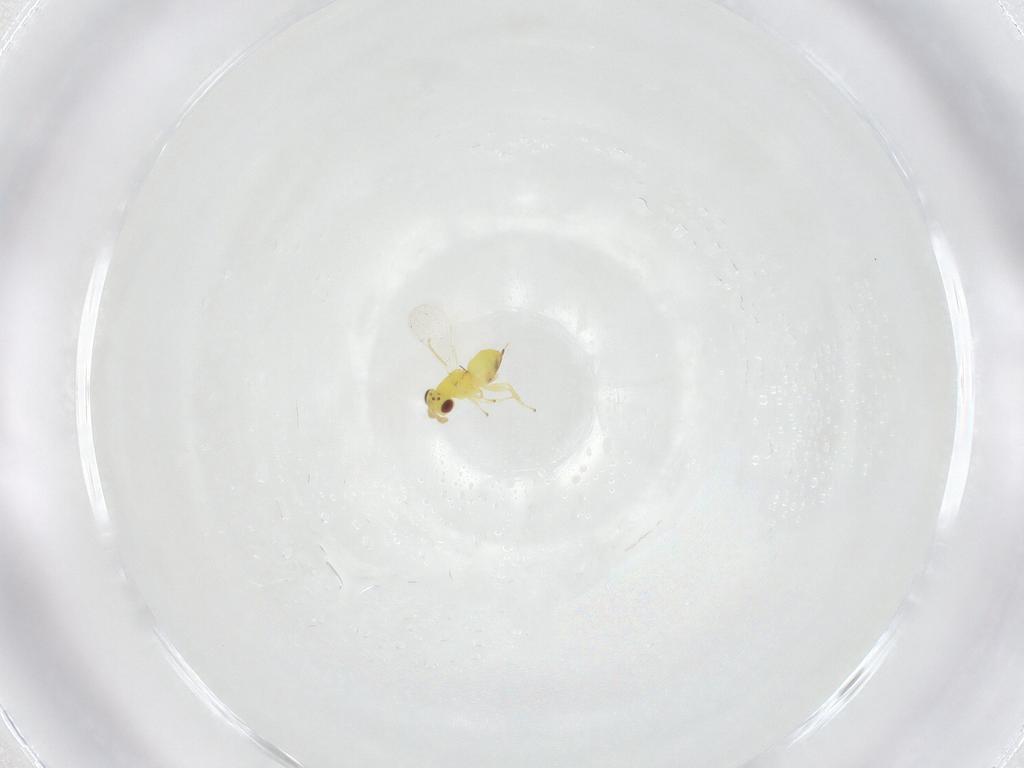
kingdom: Animalia
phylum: Arthropoda
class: Insecta
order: Hymenoptera
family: Eulophidae
